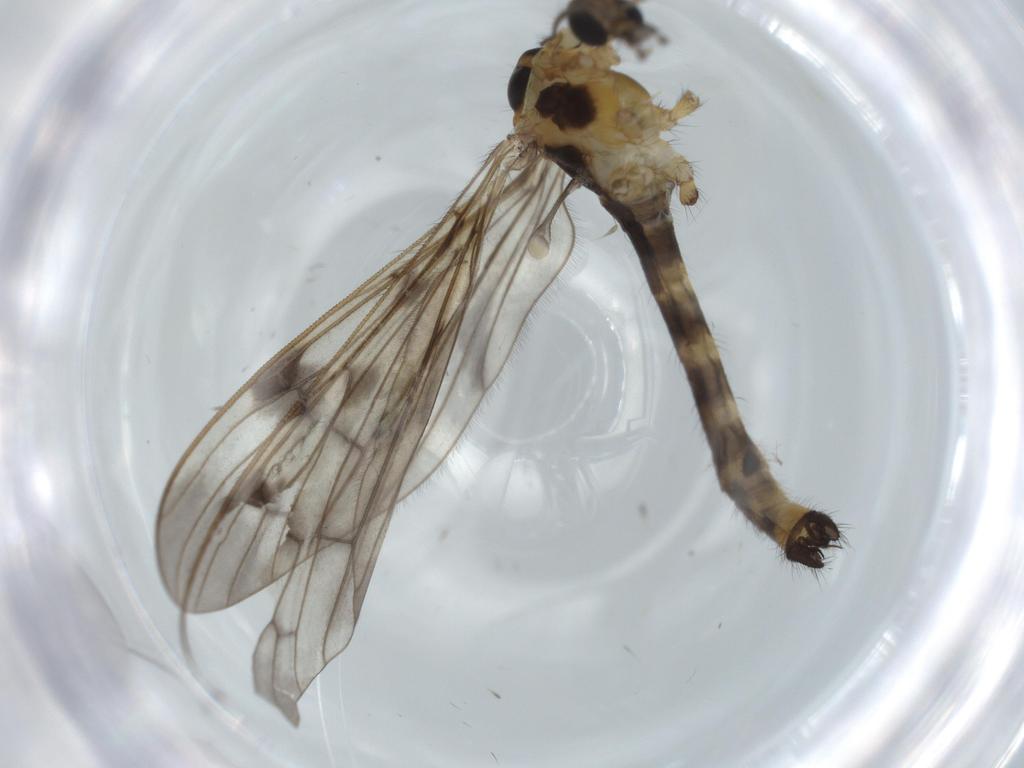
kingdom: Animalia
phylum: Arthropoda
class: Insecta
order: Diptera
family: Limoniidae
